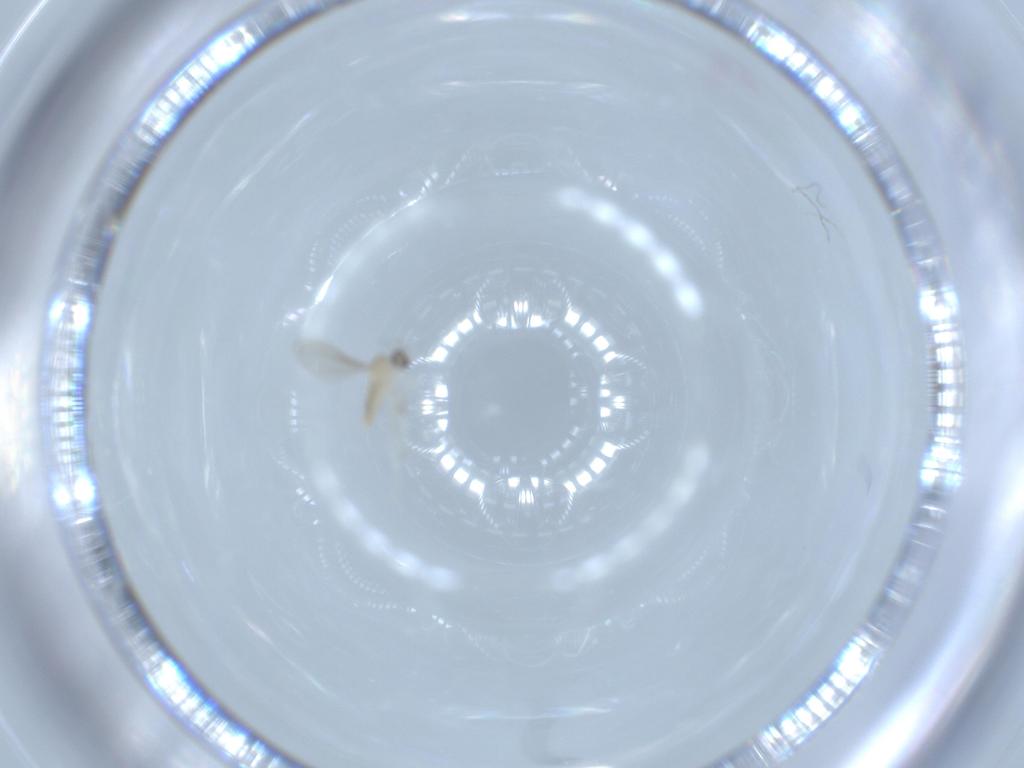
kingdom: Animalia
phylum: Arthropoda
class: Insecta
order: Diptera
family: Cecidomyiidae
